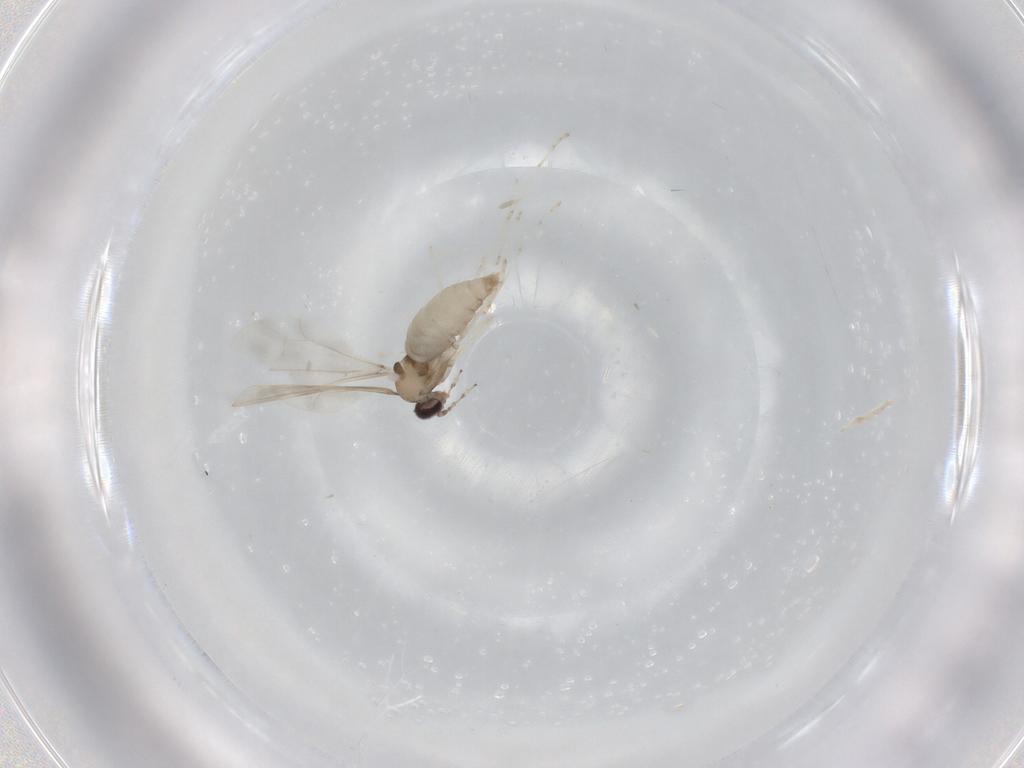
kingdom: Animalia
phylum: Arthropoda
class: Insecta
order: Diptera
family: Cecidomyiidae
